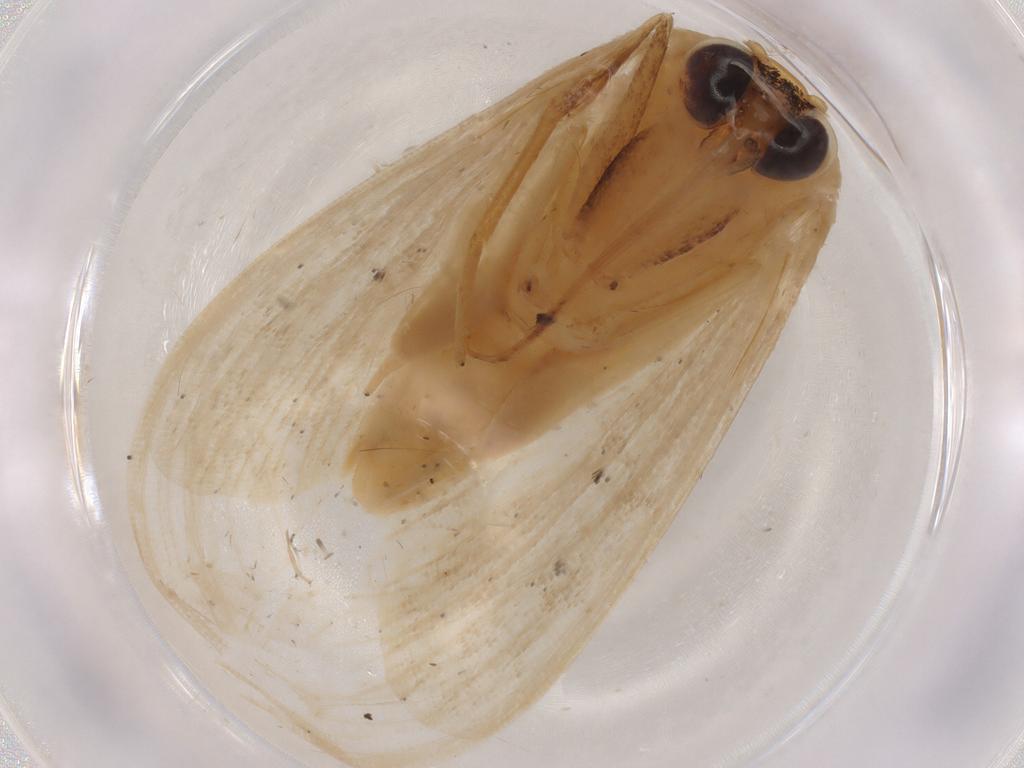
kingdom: Animalia
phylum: Arthropoda
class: Insecta
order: Lepidoptera
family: Geometridae
